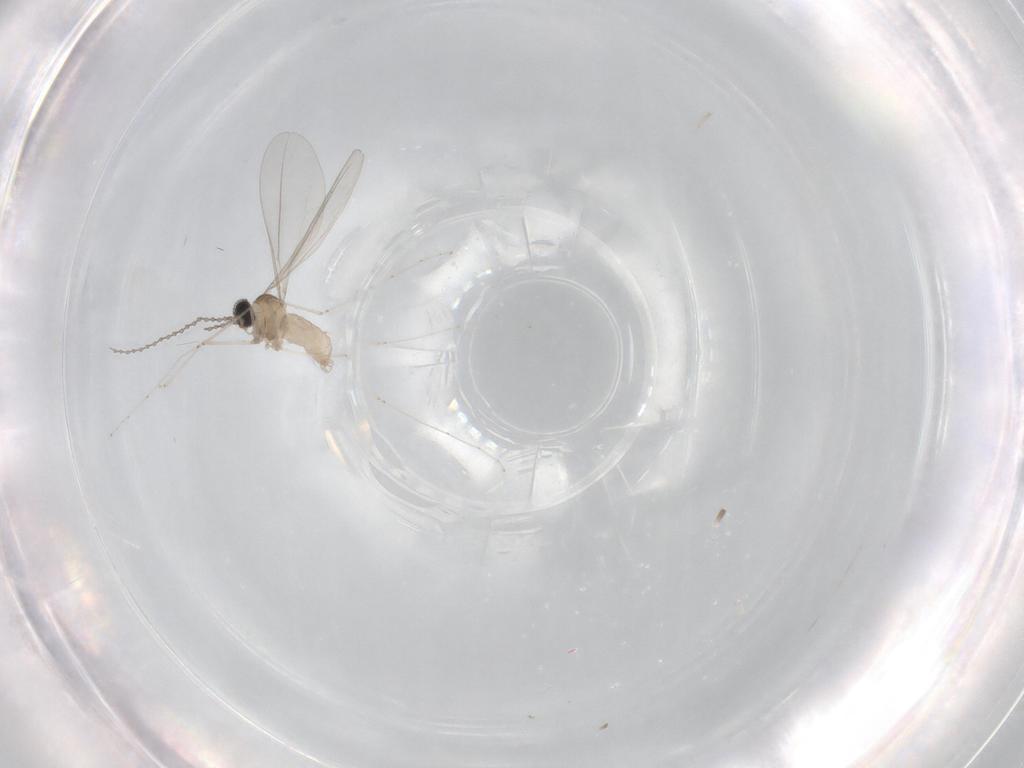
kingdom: Animalia
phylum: Arthropoda
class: Insecta
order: Diptera
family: Cecidomyiidae
